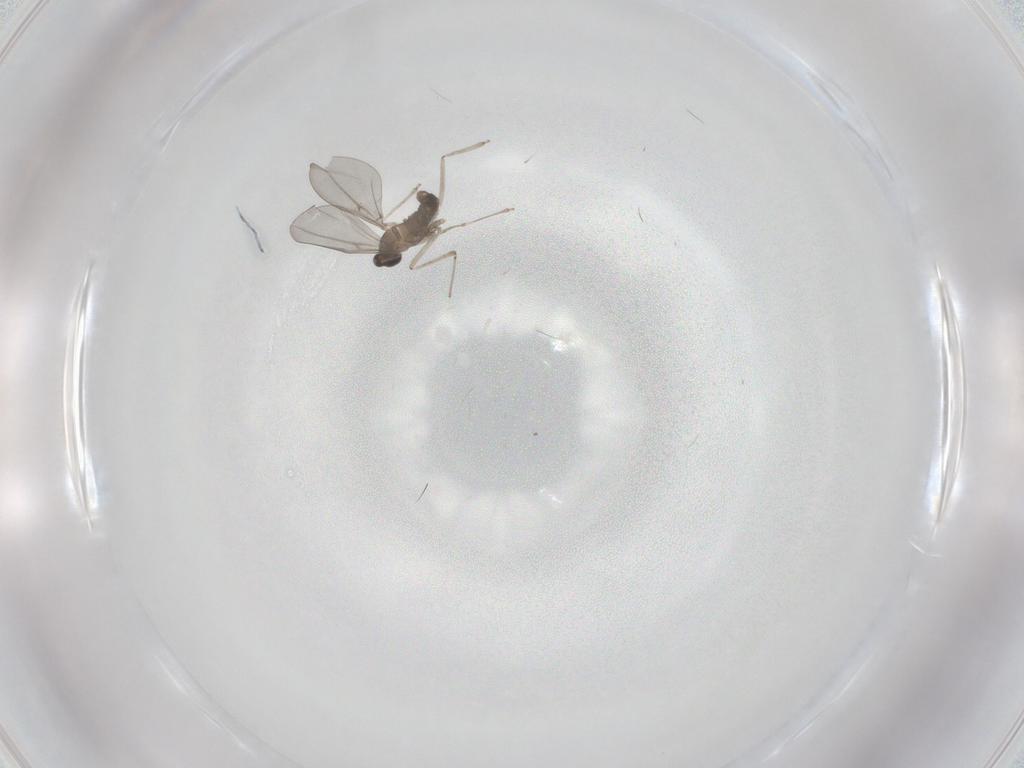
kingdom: Animalia
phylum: Arthropoda
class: Insecta
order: Diptera
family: Cecidomyiidae
